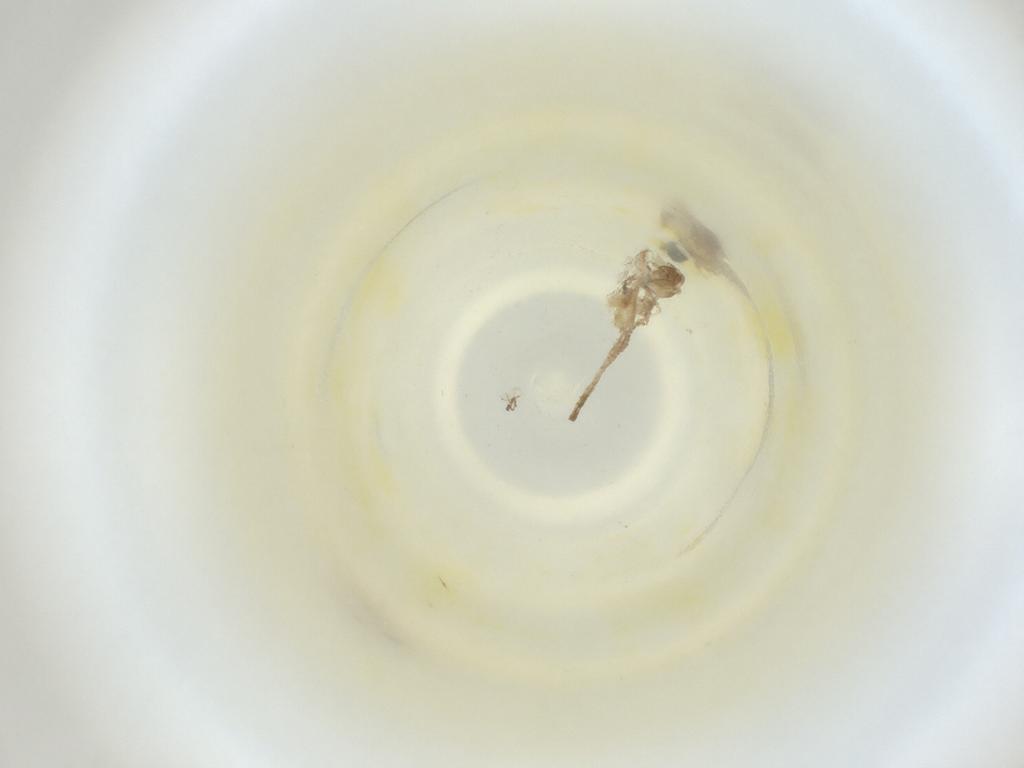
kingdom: Animalia
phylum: Arthropoda
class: Insecta
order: Diptera
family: Cecidomyiidae
